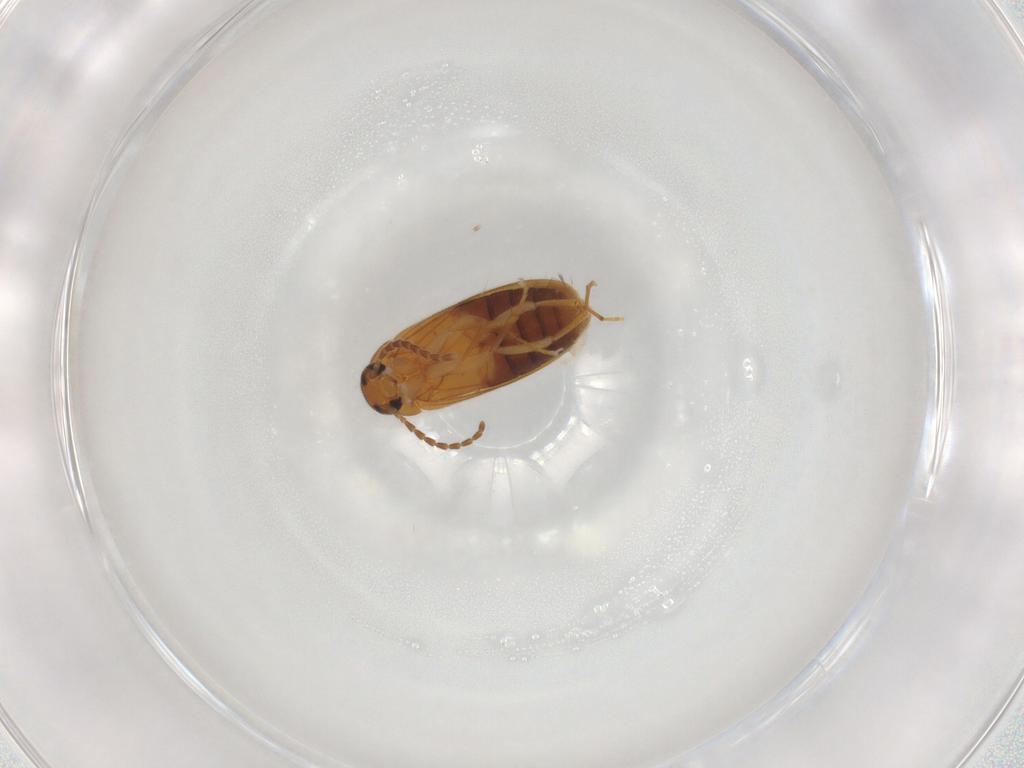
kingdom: Animalia
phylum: Arthropoda
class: Insecta
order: Coleoptera
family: Scraptiidae
